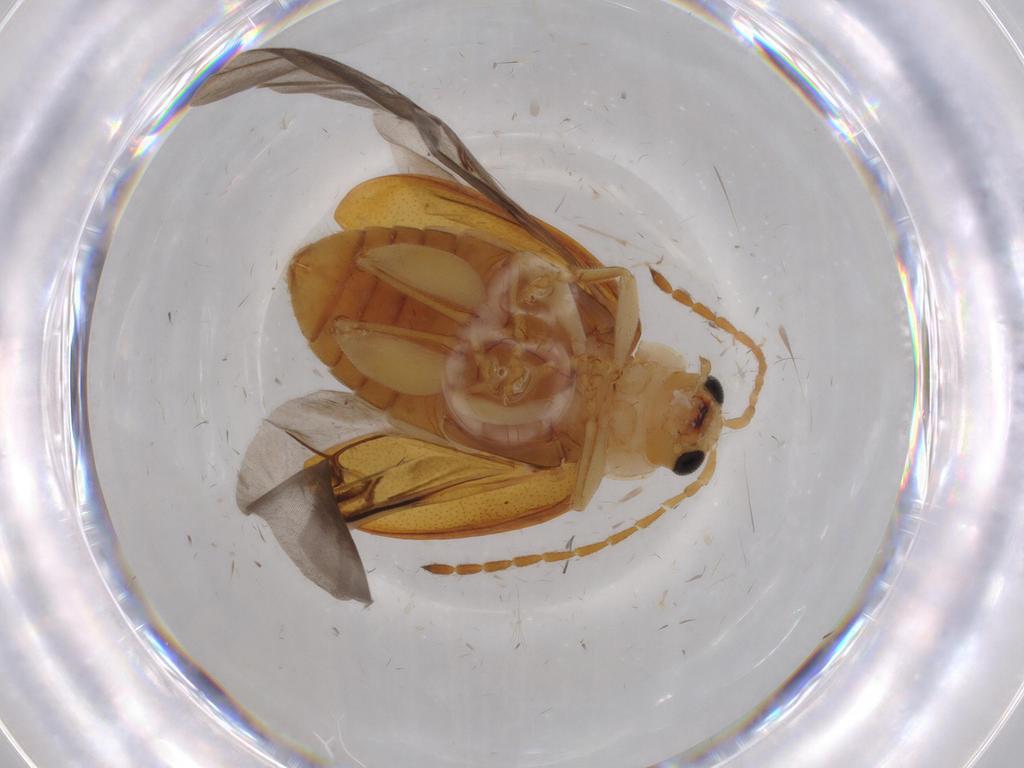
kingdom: Animalia
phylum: Arthropoda
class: Insecta
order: Coleoptera
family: Chrysomelidae
